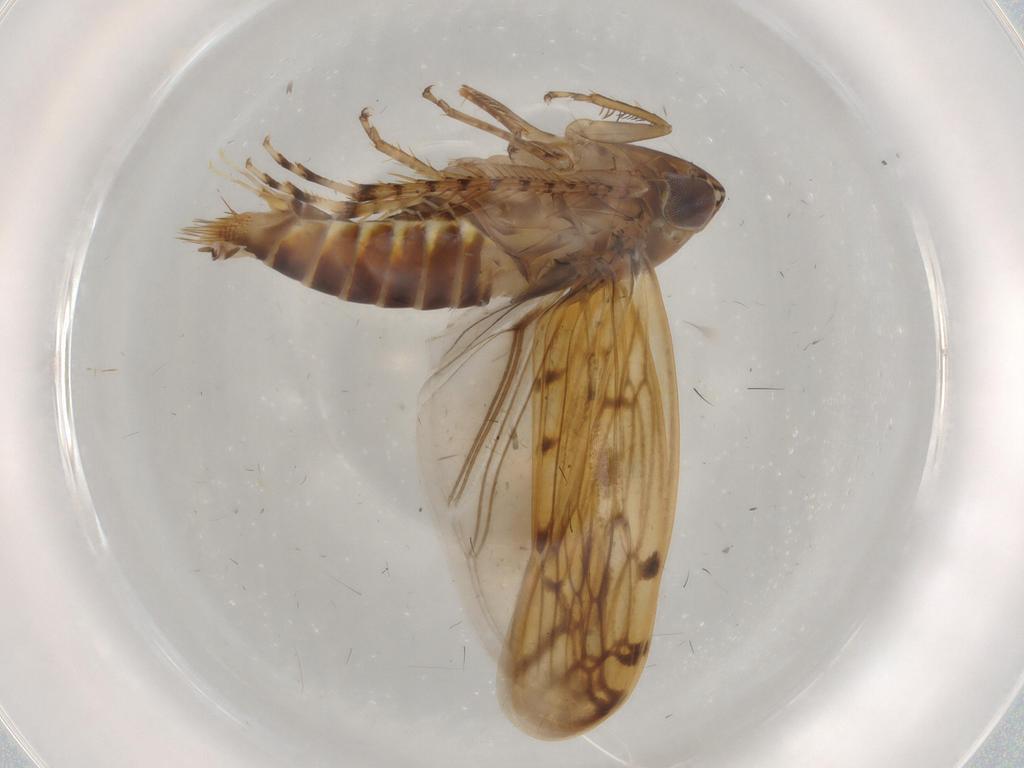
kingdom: Animalia
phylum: Arthropoda
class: Insecta
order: Hemiptera
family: Cicadellidae
